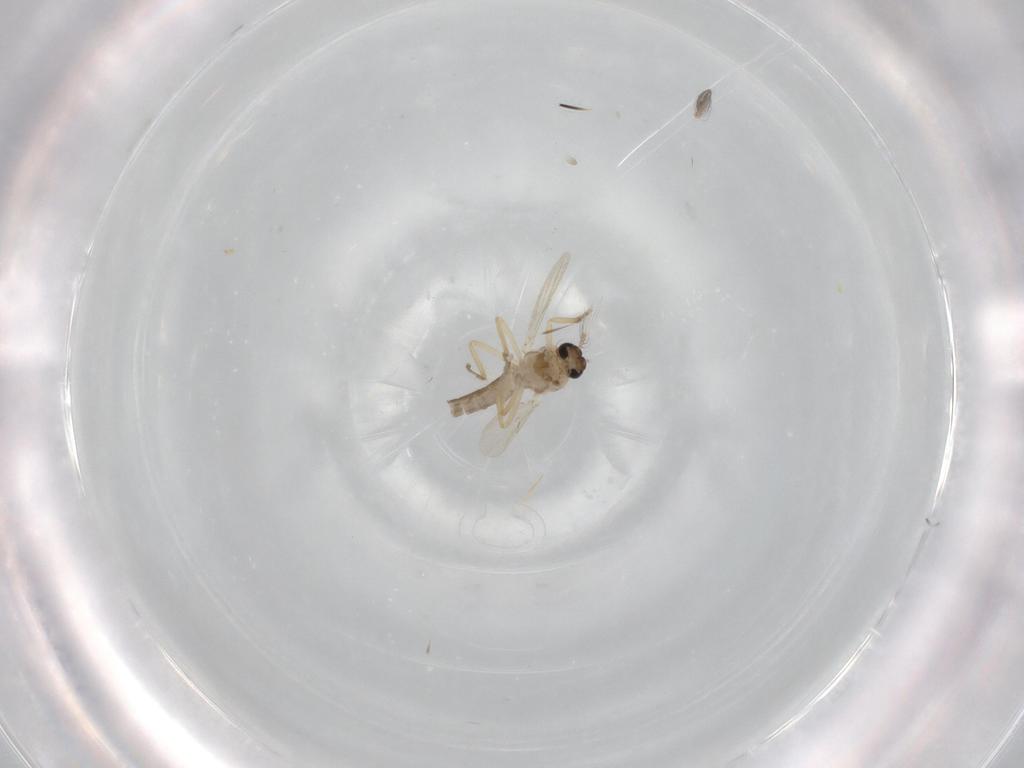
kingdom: Animalia
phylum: Arthropoda
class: Insecta
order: Diptera
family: Ceratopogonidae
